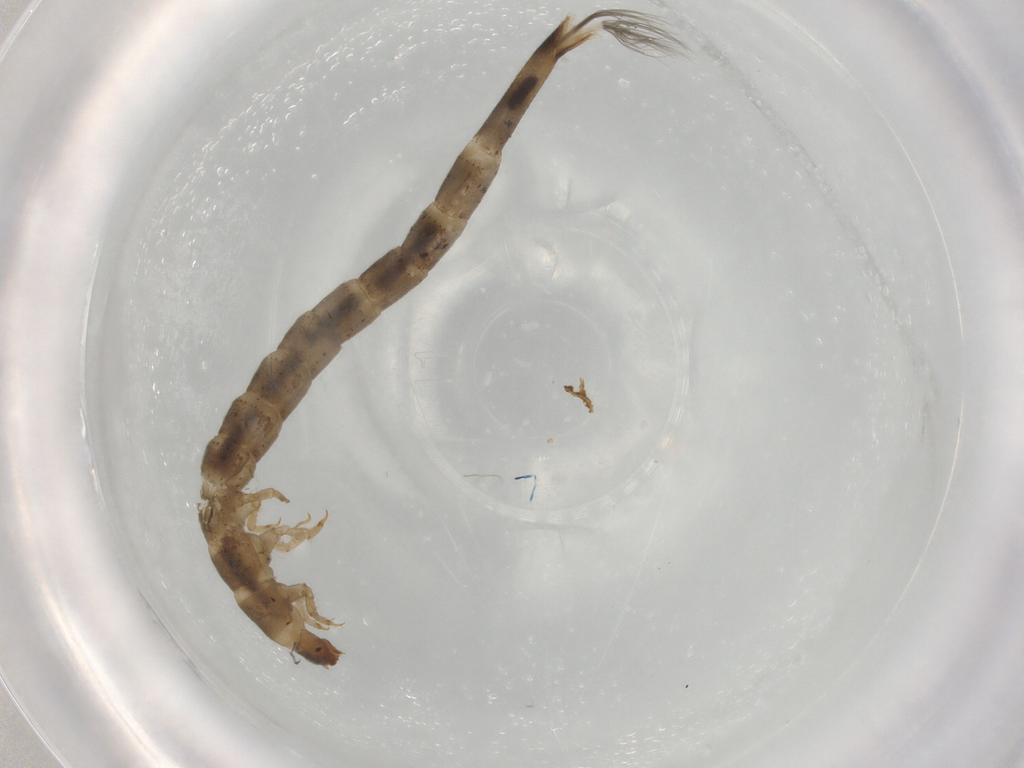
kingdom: Animalia
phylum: Arthropoda
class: Insecta
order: Coleoptera
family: Elmidae
